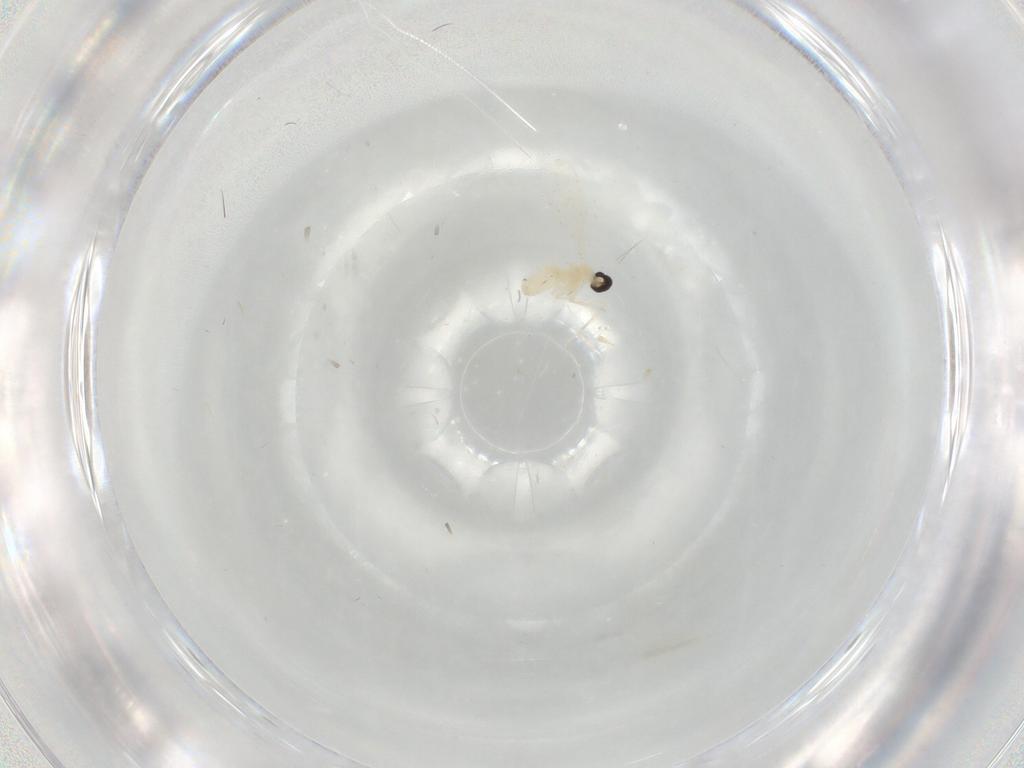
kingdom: Animalia
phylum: Arthropoda
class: Insecta
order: Diptera
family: Cecidomyiidae
